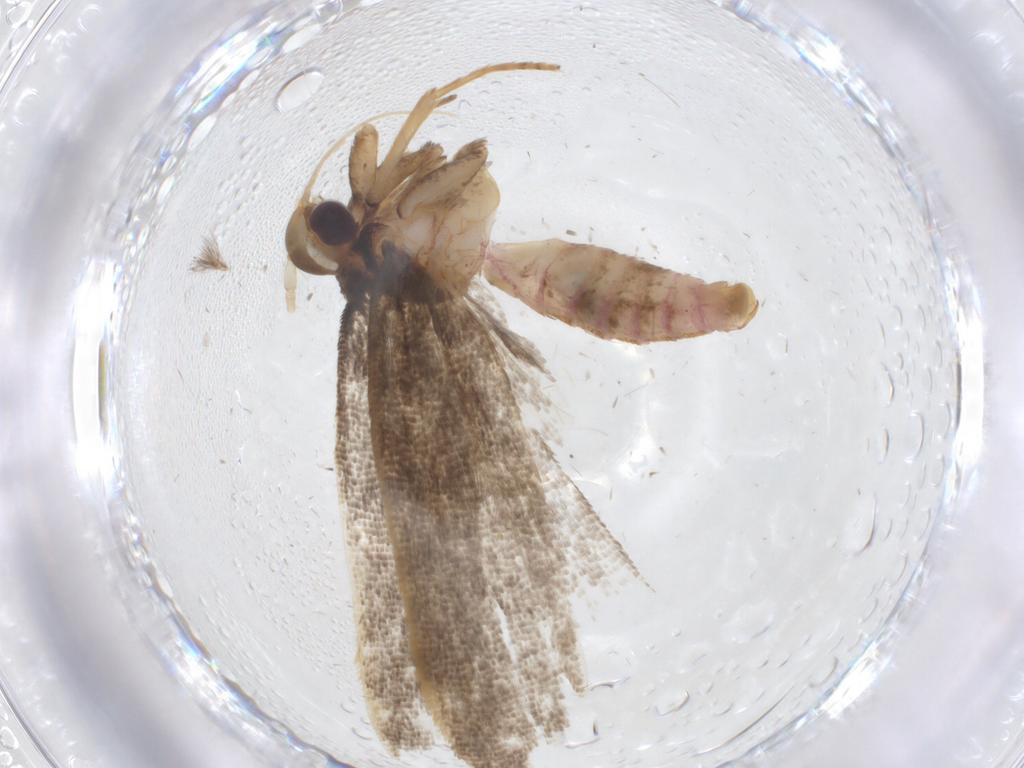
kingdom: Animalia
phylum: Arthropoda
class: Insecta
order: Lepidoptera
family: Lecithoceridae
